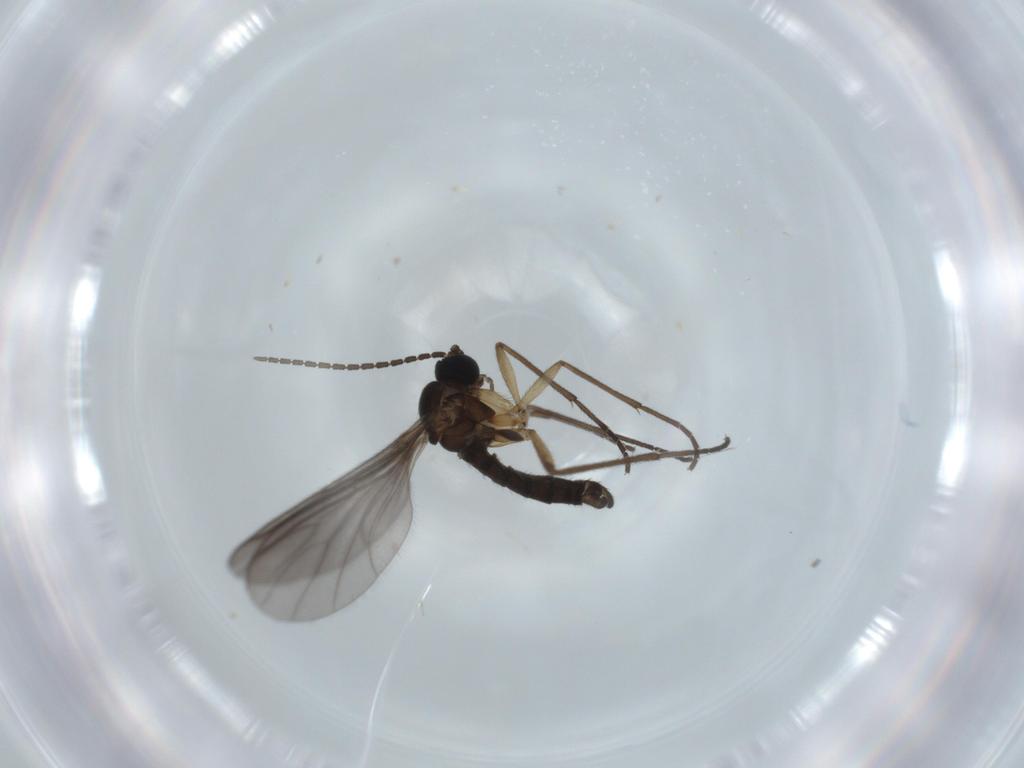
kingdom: Animalia
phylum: Arthropoda
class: Insecta
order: Diptera
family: Sciaridae
